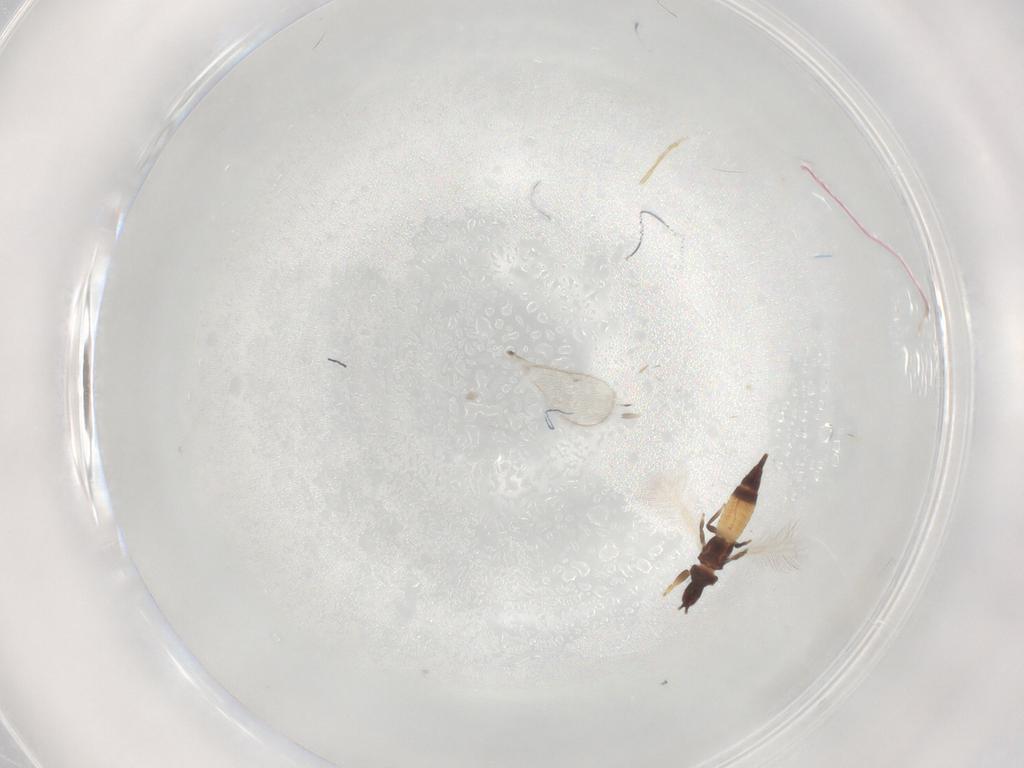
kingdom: Animalia
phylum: Arthropoda
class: Insecta
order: Thysanoptera
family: Phlaeothripidae
